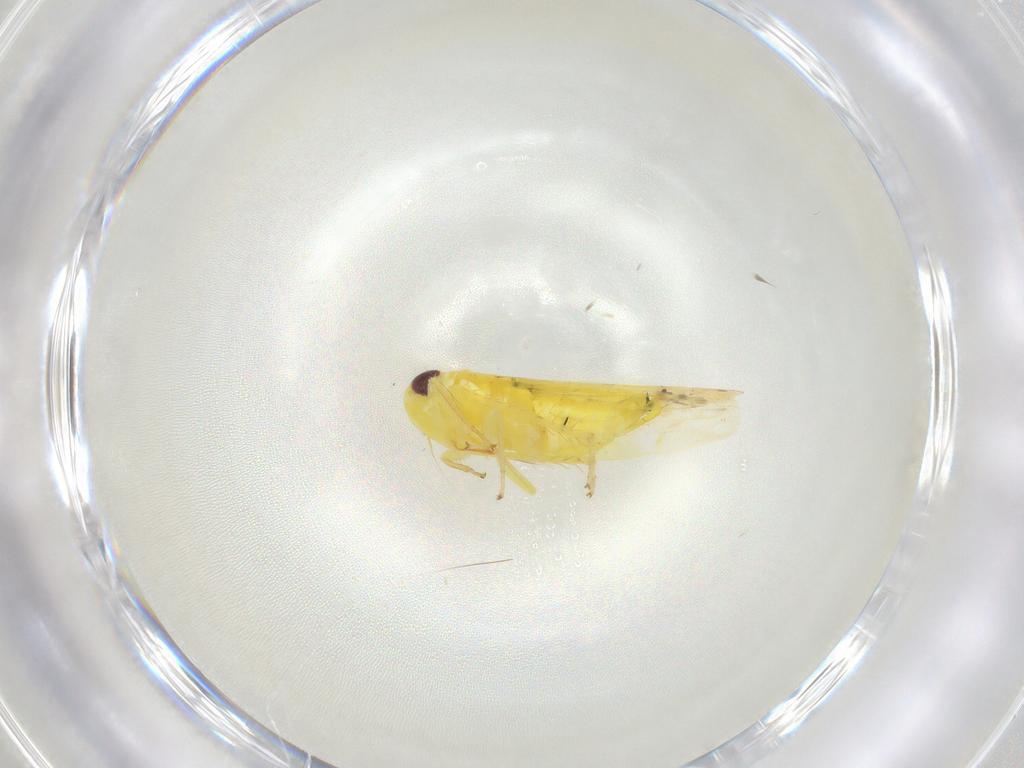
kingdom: Animalia
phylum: Arthropoda
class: Insecta
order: Hemiptera
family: Cicadellidae
